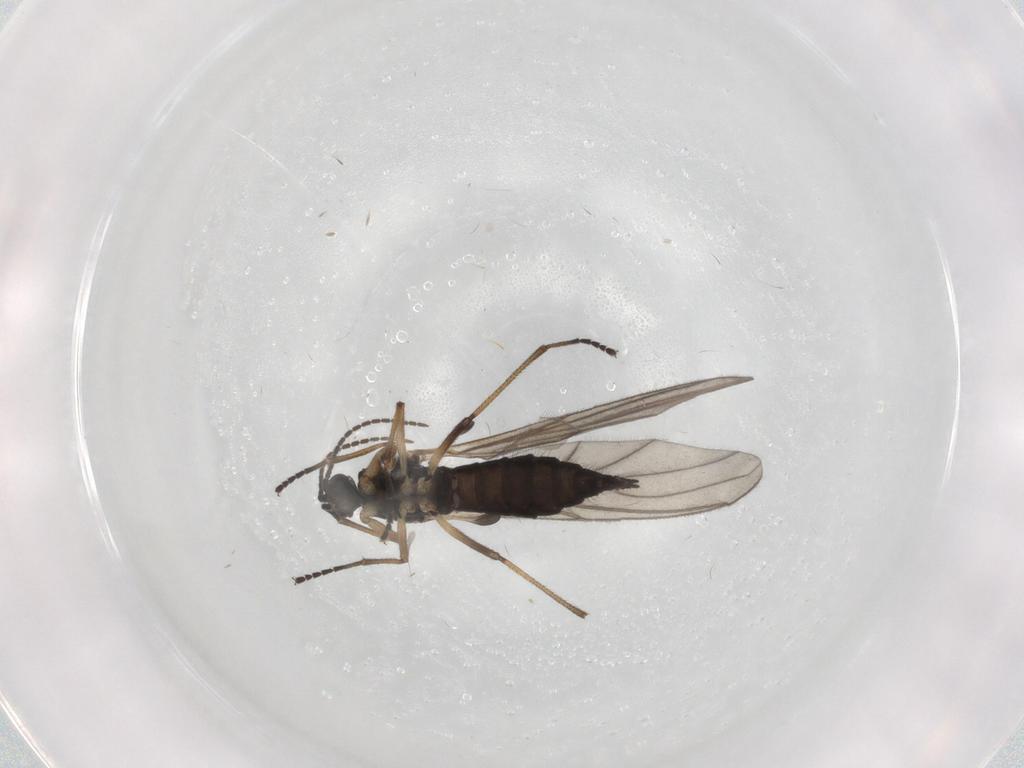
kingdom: Animalia
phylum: Arthropoda
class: Insecta
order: Diptera
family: Sciaridae
